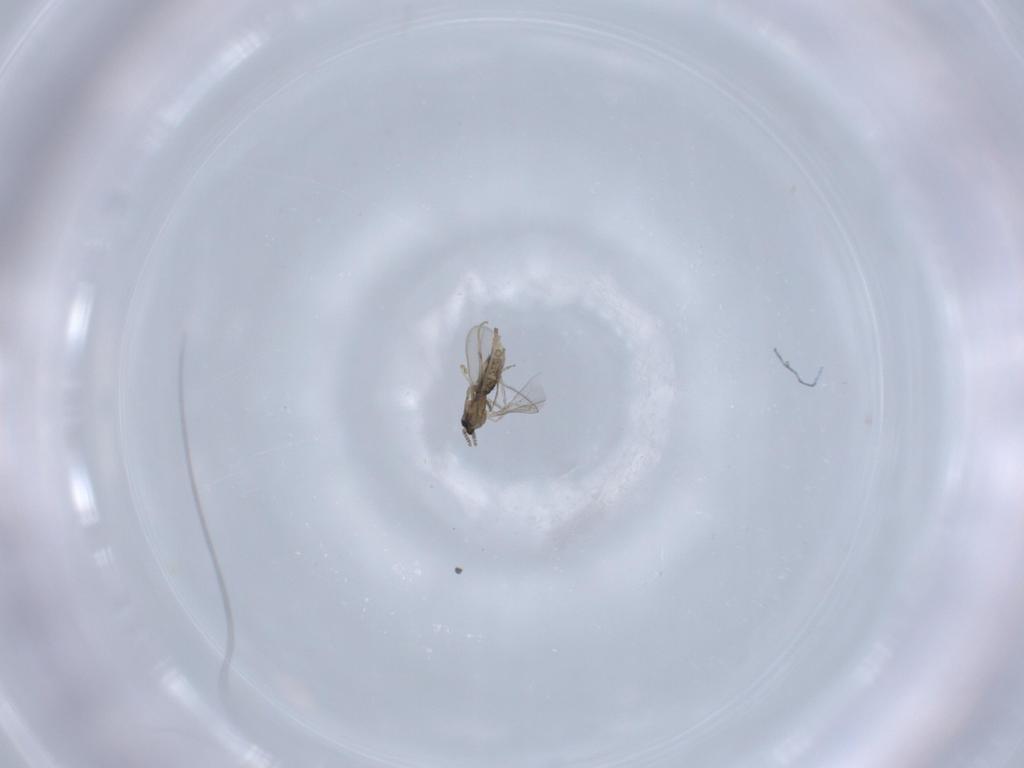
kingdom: Animalia
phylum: Arthropoda
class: Insecta
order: Diptera
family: Cecidomyiidae
